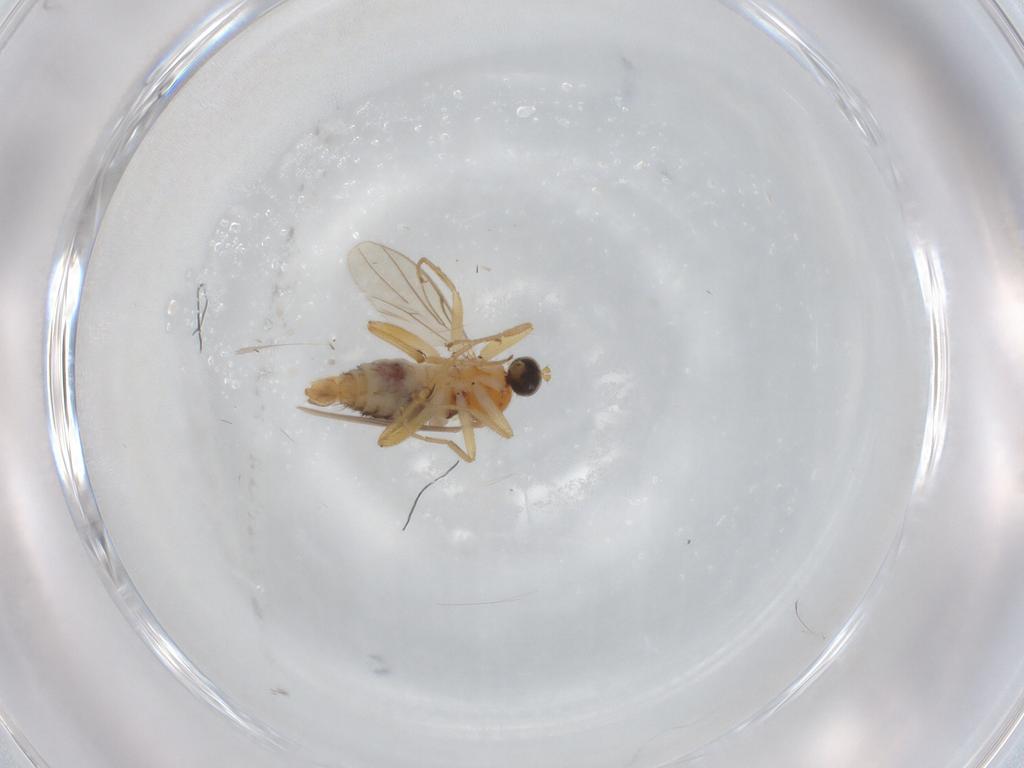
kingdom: Animalia
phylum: Arthropoda
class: Insecta
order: Diptera
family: Hybotidae
